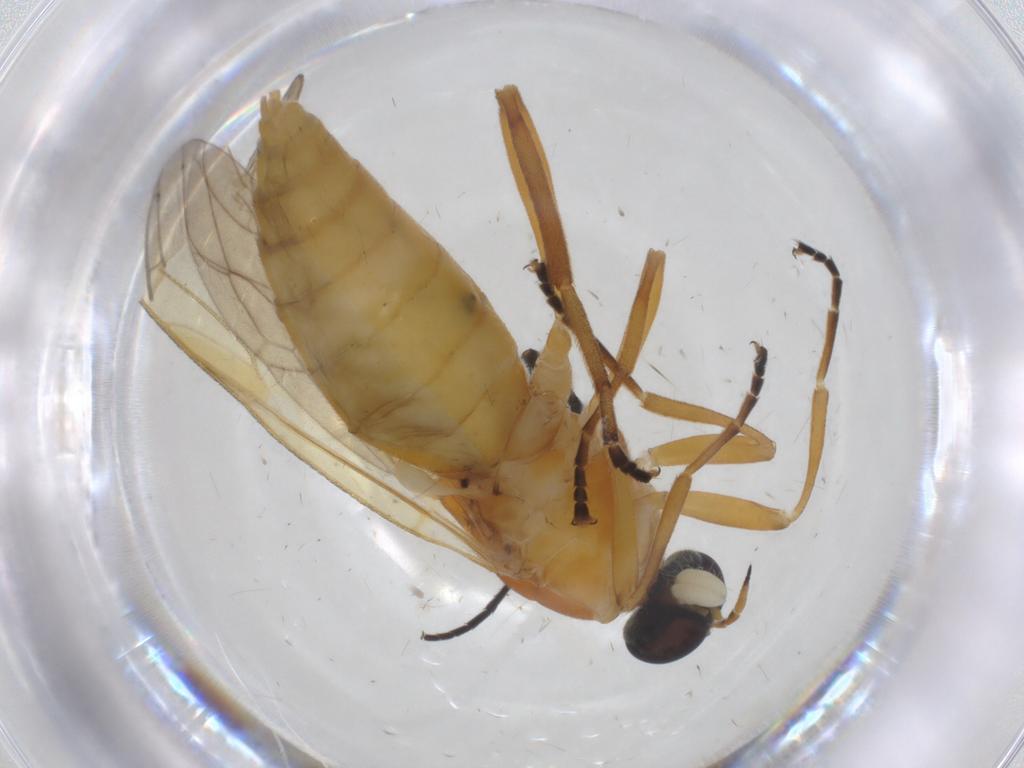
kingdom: Animalia
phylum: Arthropoda
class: Insecta
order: Diptera
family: Stratiomyidae
